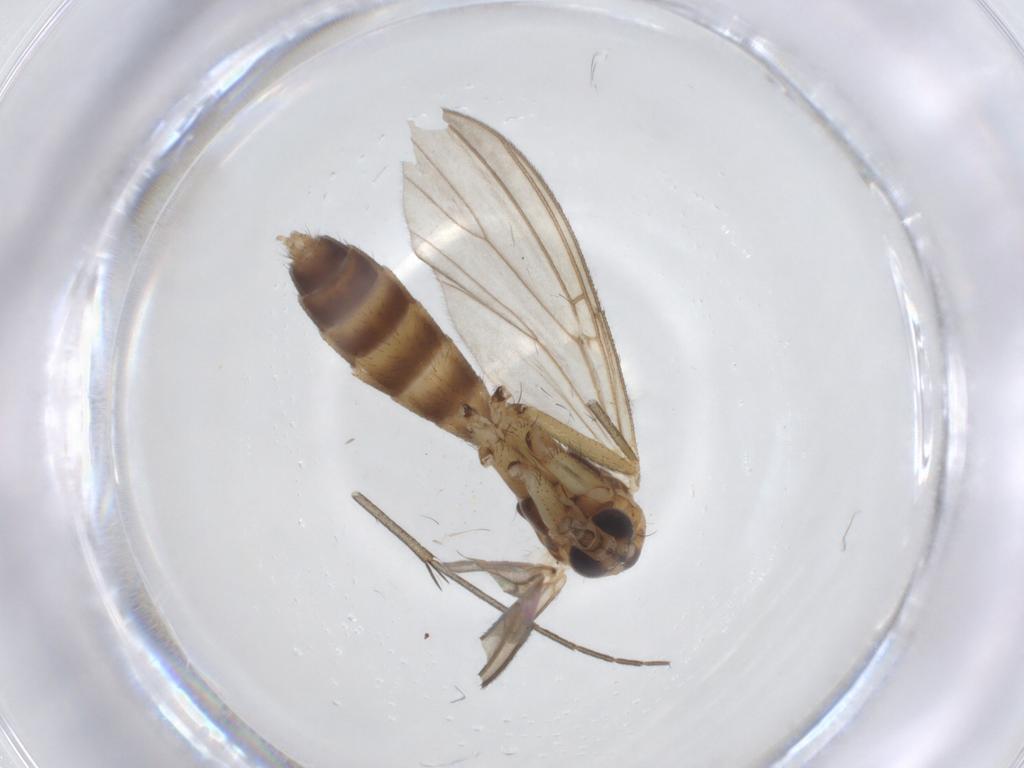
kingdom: Animalia
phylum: Arthropoda
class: Insecta
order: Diptera
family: Mycetophilidae
